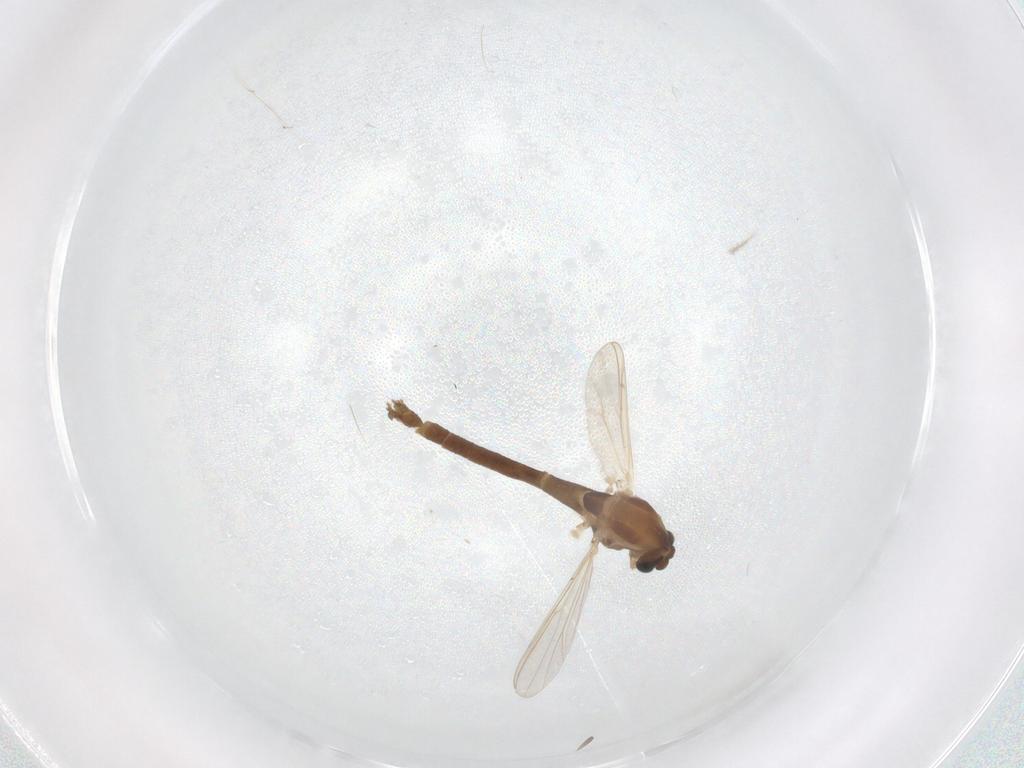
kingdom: Animalia
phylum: Arthropoda
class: Insecta
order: Diptera
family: Chironomidae
